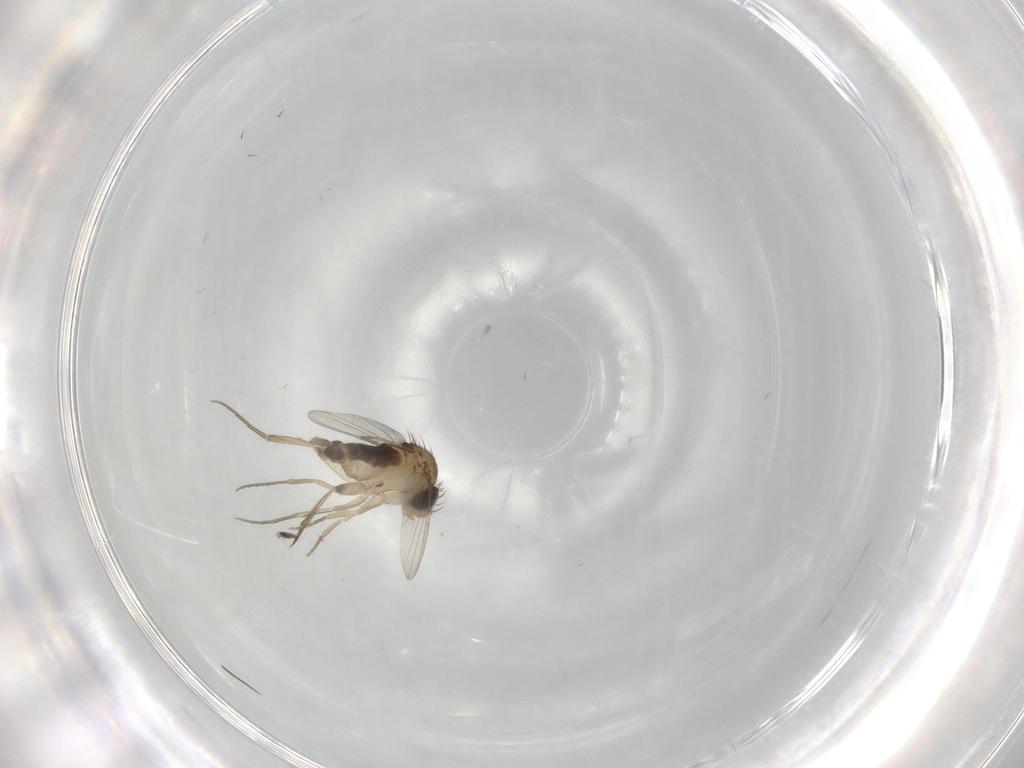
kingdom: Animalia
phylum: Arthropoda
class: Insecta
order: Diptera
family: Phoridae
